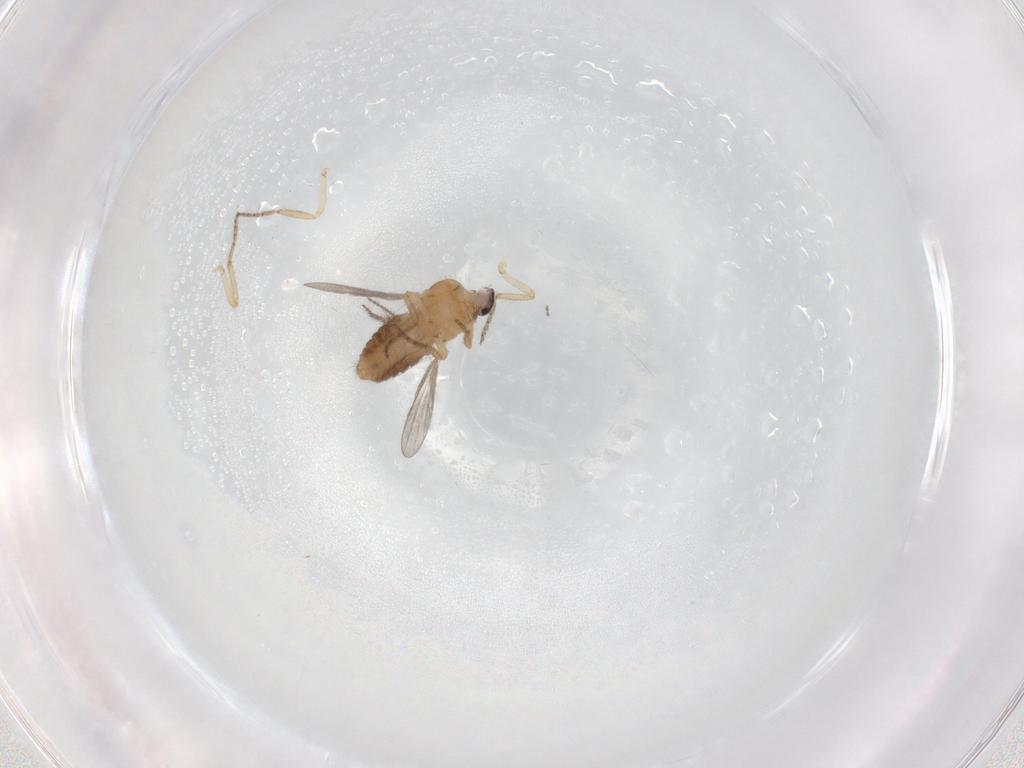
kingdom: Animalia
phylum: Arthropoda
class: Insecta
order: Diptera
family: Ceratopogonidae
